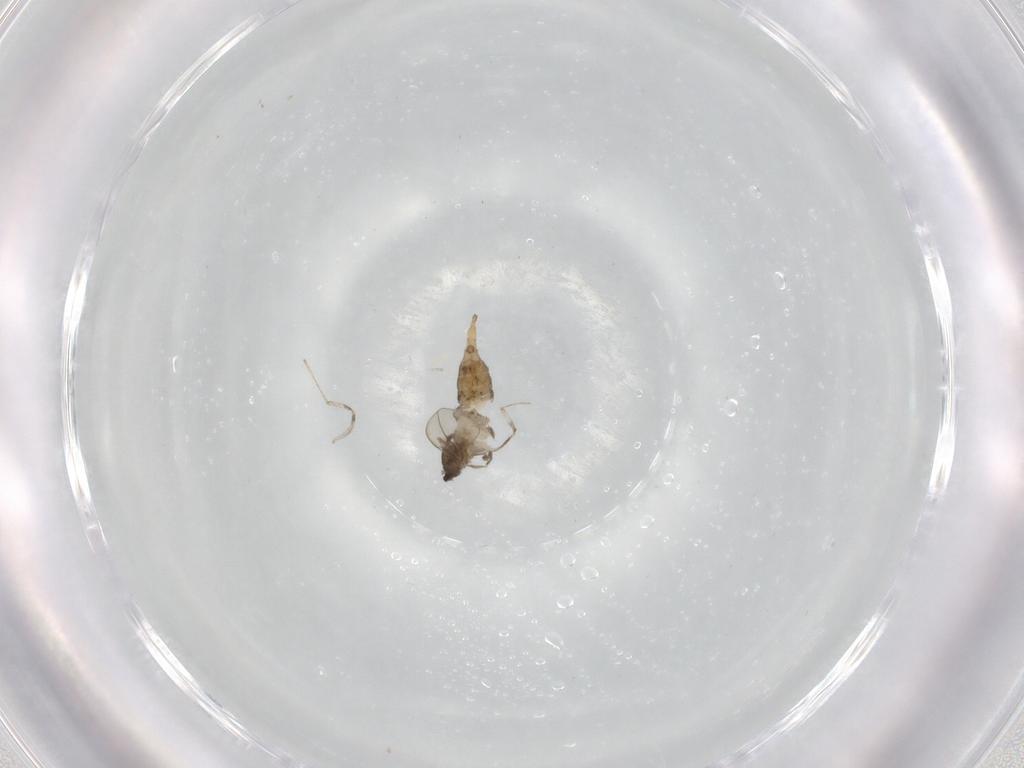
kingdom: Animalia
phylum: Arthropoda
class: Insecta
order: Diptera
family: Cecidomyiidae
